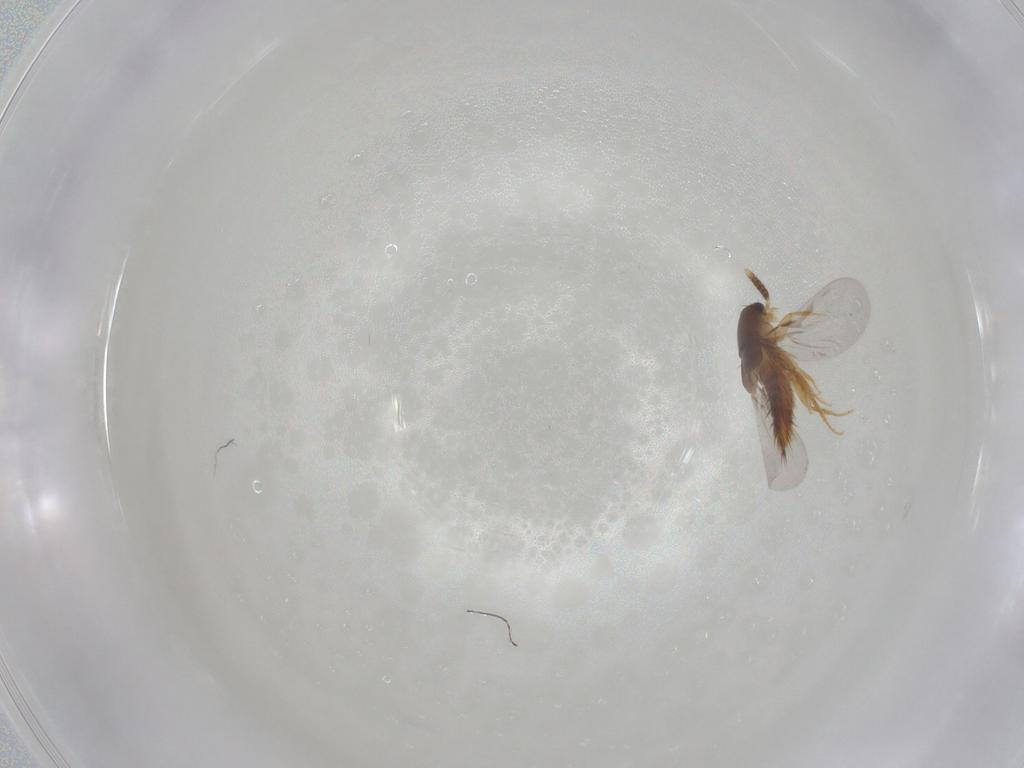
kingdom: Animalia
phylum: Arthropoda
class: Insecta
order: Coleoptera
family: Staphylinidae
